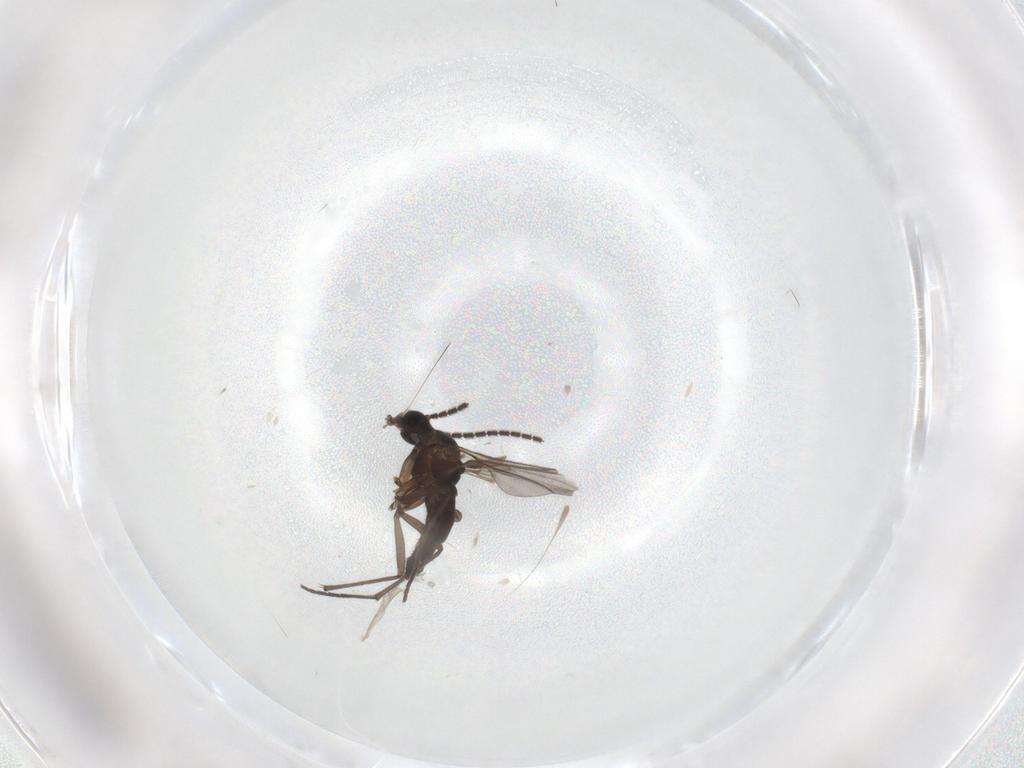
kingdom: Animalia
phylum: Arthropoda
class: Insecta
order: Diptera
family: Sciaridae
